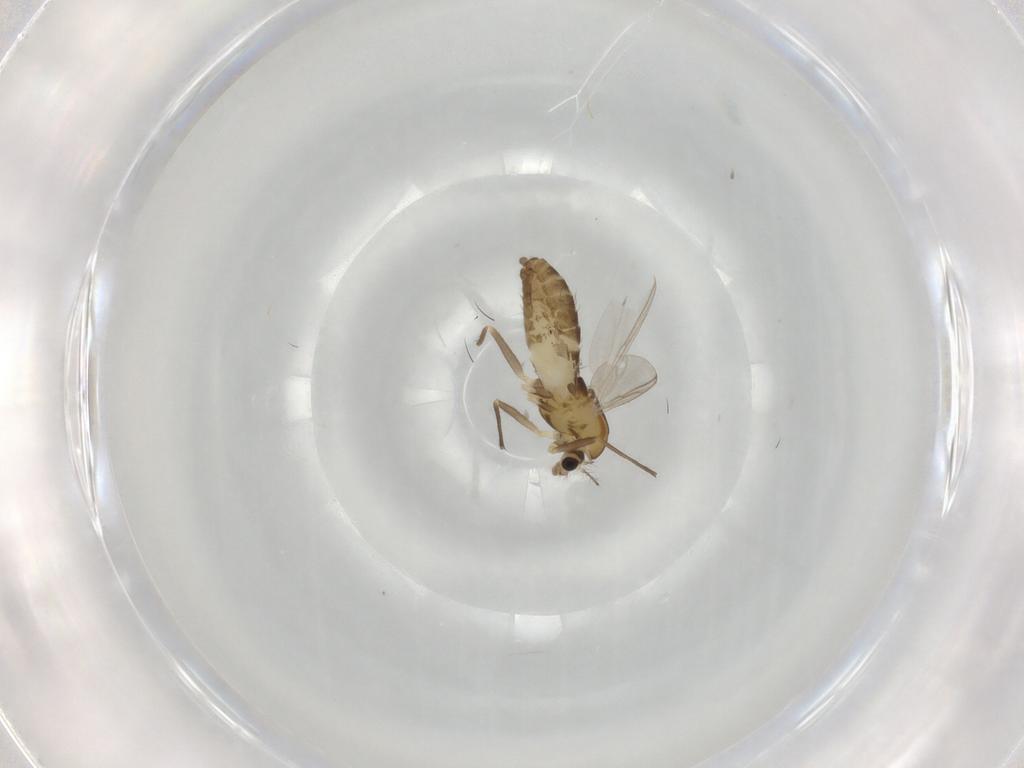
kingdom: Animalia
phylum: Arthropoda
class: Insecta
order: Diptera
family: Chironomidae
